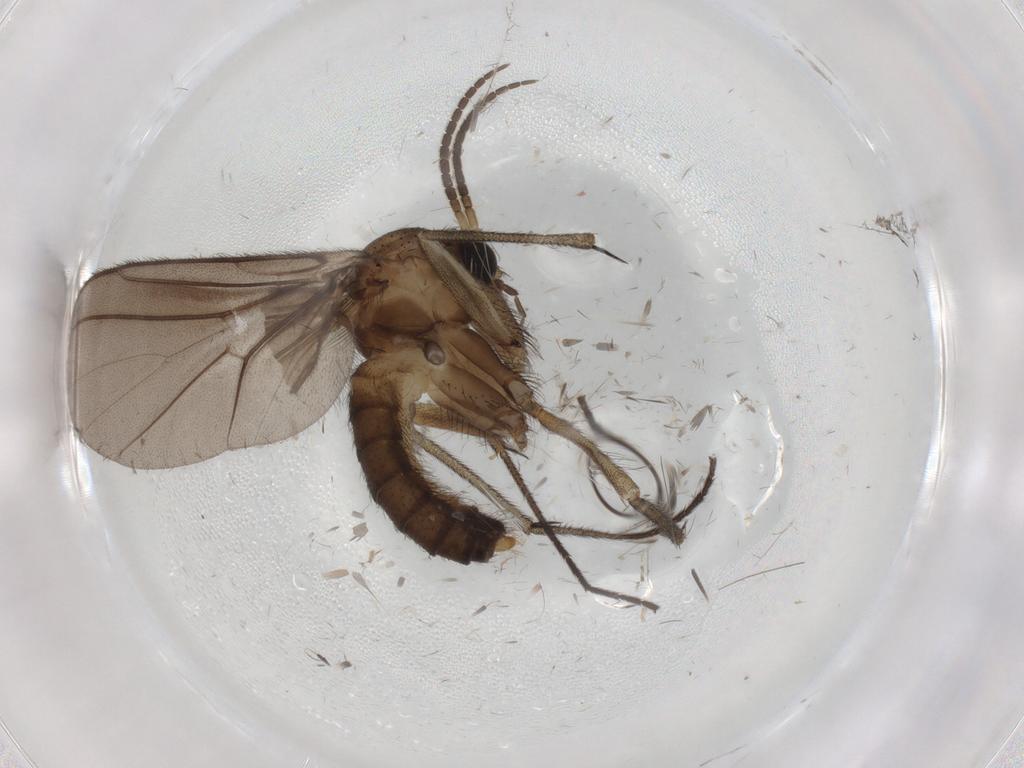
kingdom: Animalia
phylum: Arthropoda
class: Insecta
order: Diptera
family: Diadocidiidae
